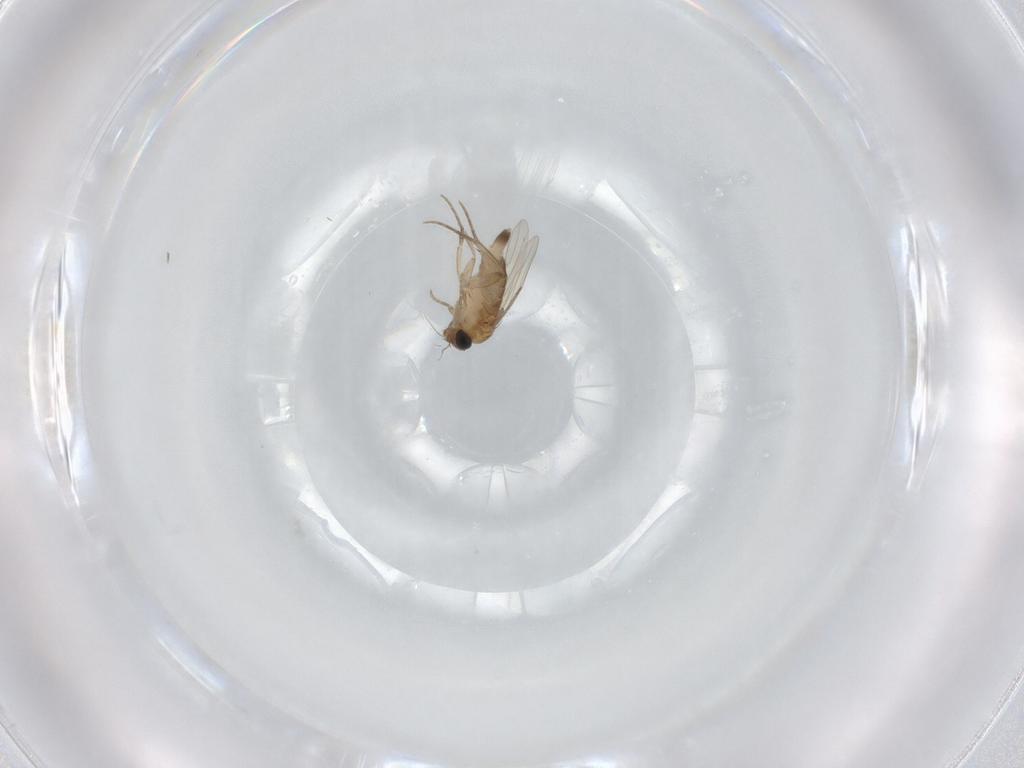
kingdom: Animalia
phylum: Arthropoda
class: Insecta
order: Diptera
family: Phoridae
